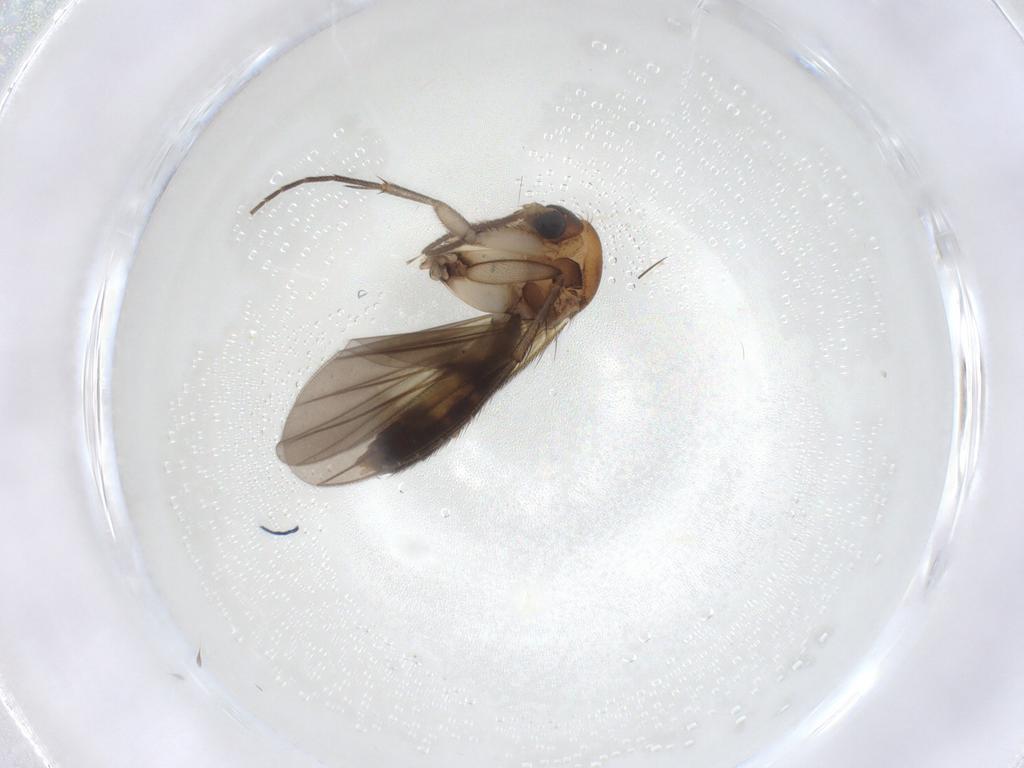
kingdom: Animalia
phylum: Arthropoda
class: Insecta
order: Diptera
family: Mycetophilidae
